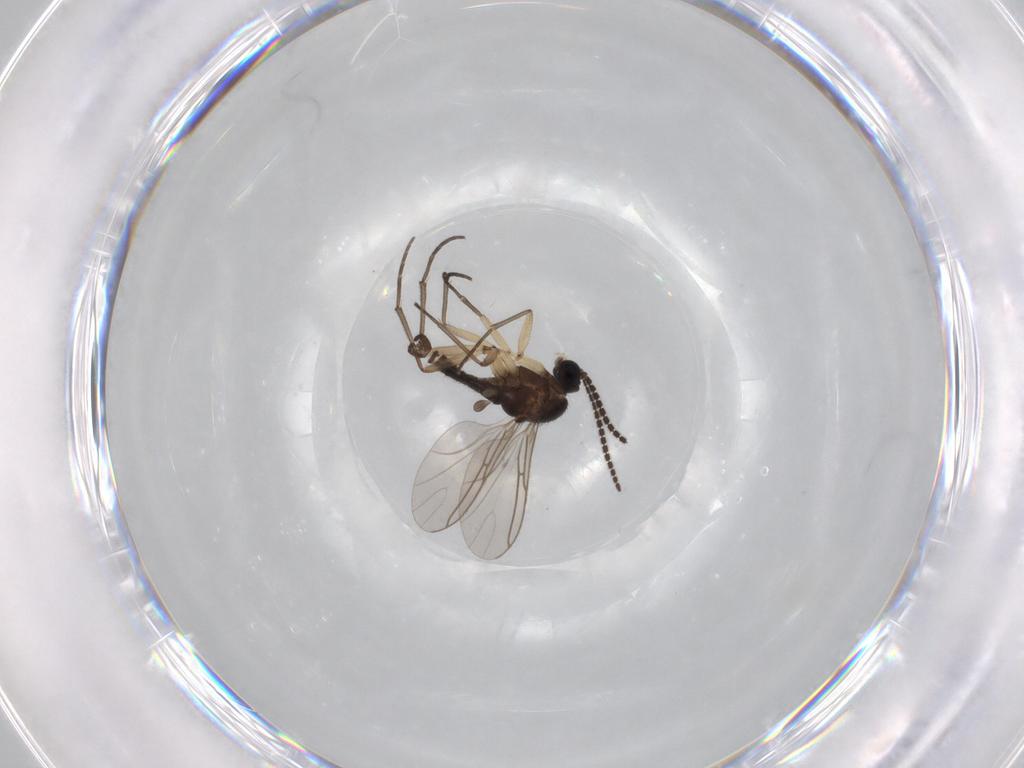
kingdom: Animalia
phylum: Arthropoda
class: Insecta
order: Diptera
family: Sciaridae
